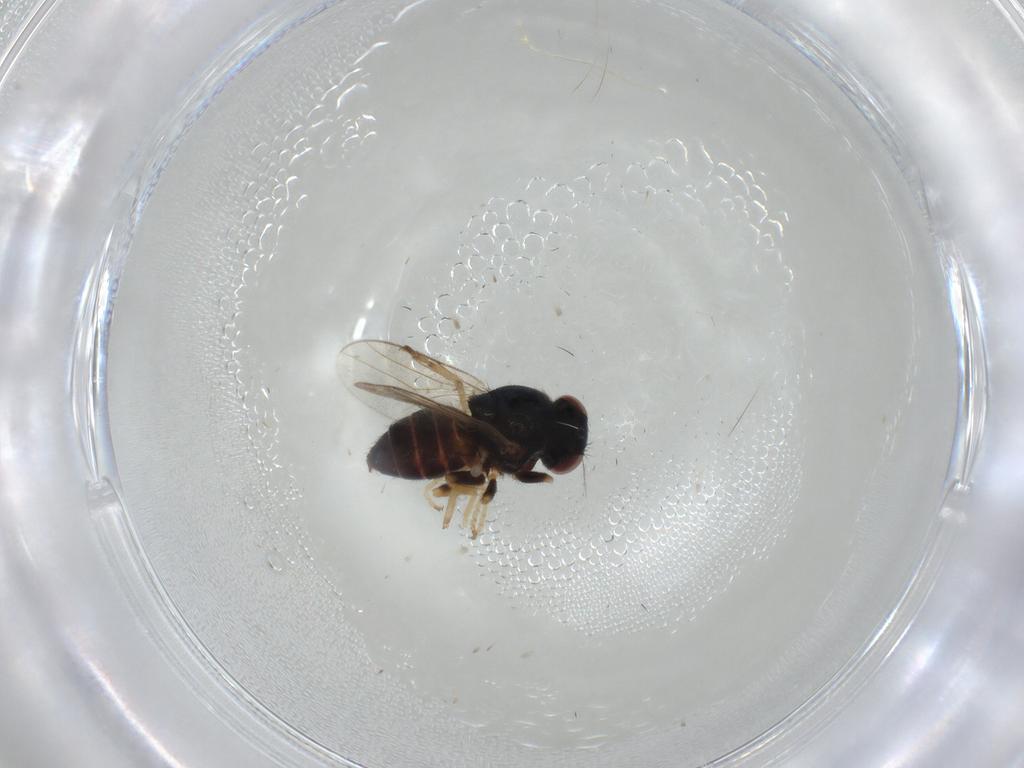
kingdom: Animalia
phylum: Arthropoda
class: Insecta
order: Diptera
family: Chloropidae
